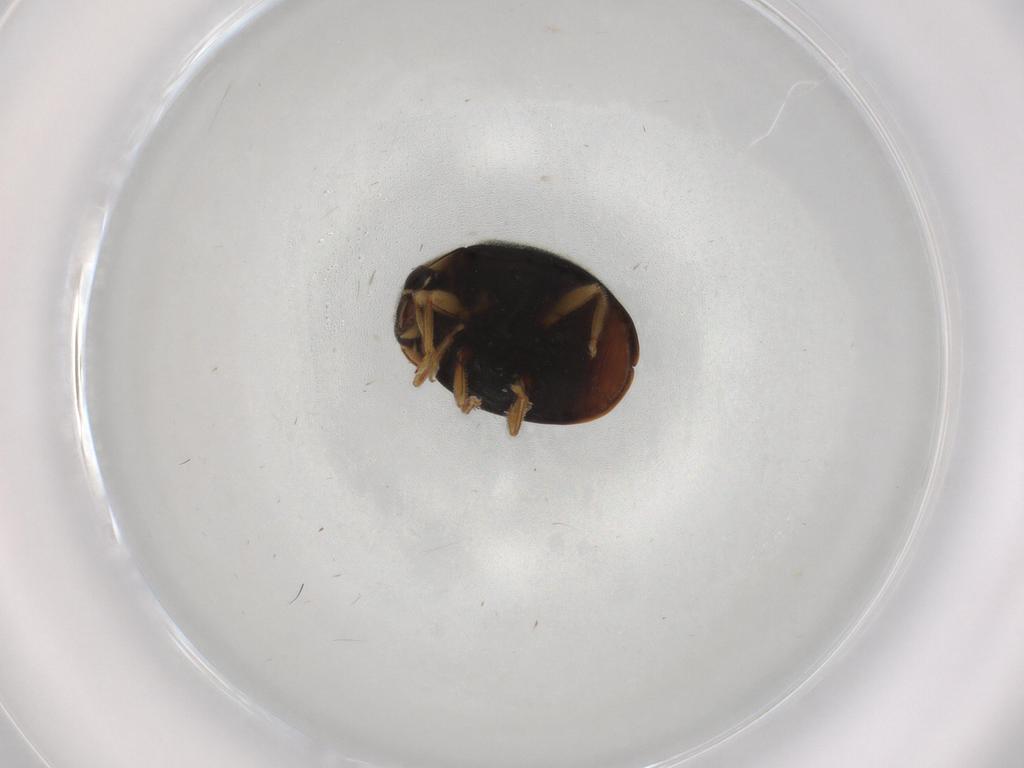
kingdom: Animalia
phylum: Arthropoda
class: Insecta
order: Coleoptera
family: Coccinellidae
